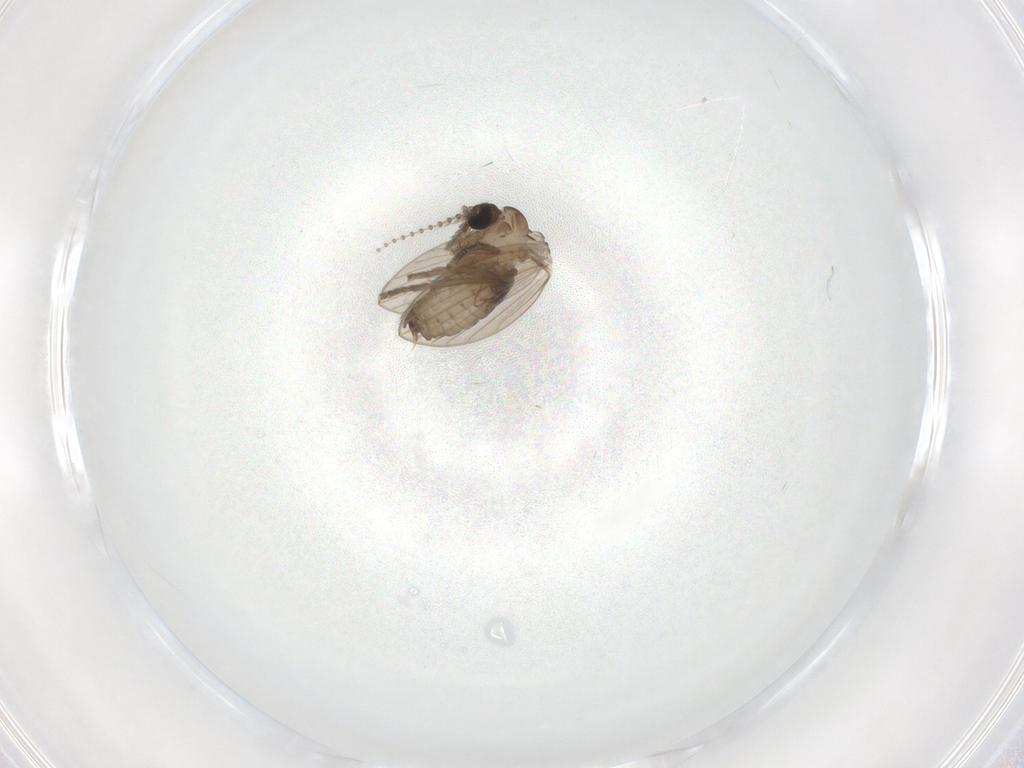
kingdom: Animalia
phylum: Arthropoda
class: Insecta
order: Diptera
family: Psychodidae
